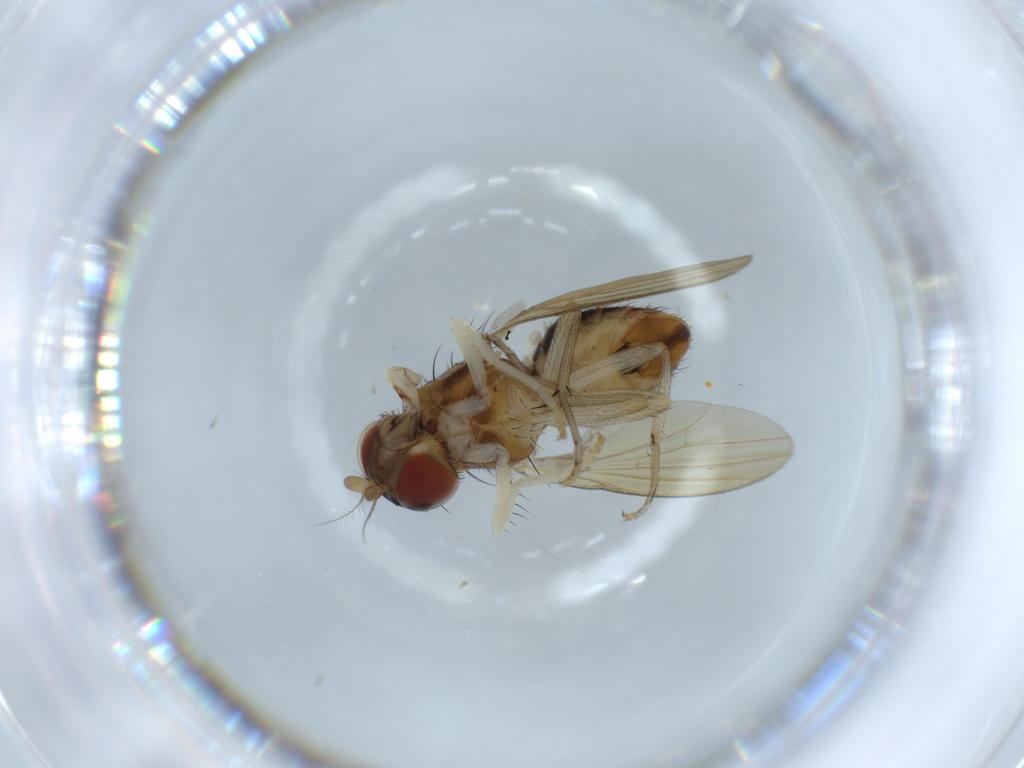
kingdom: Animalia
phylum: Arthropoda
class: Insecta
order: Diptera
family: Dolichopodidae
